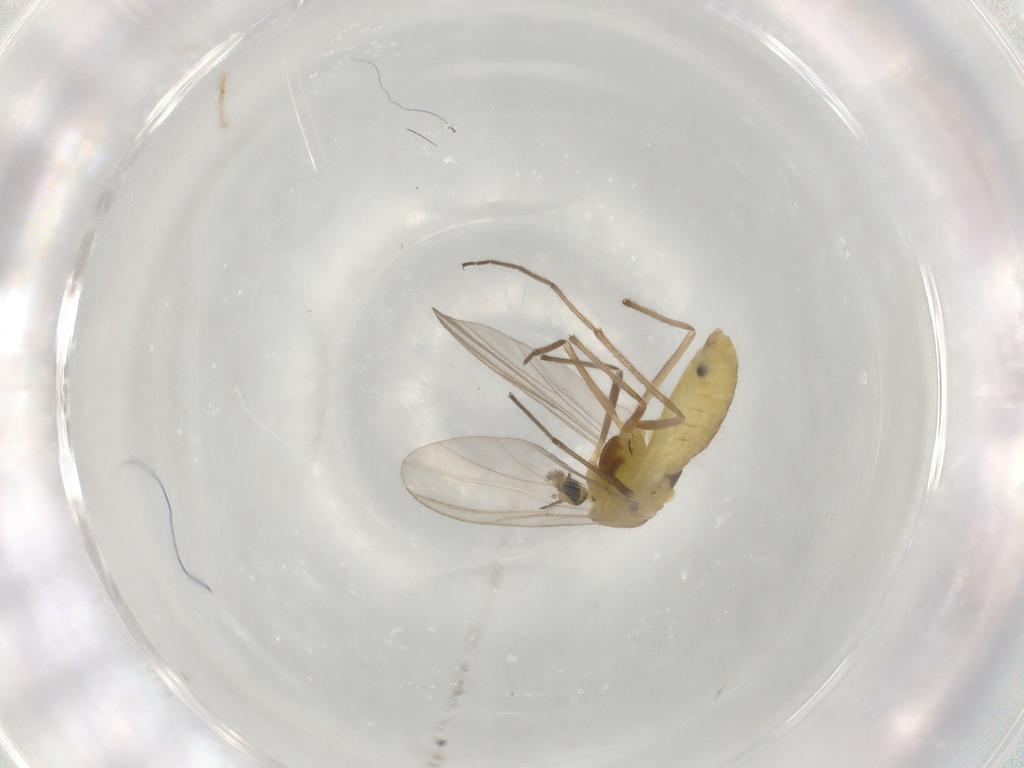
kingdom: Animalia
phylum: Arthropoda
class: Insecta
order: Diptera
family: Chironomidae
